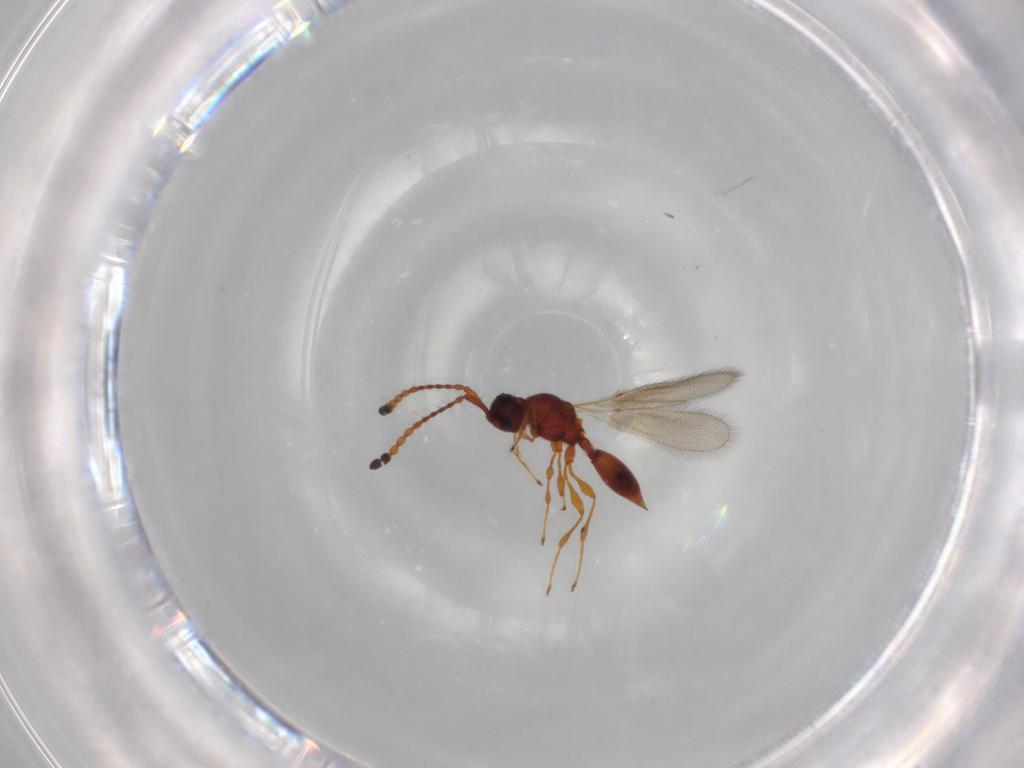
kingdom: Animalia
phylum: Arthropoda
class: Insecta
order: Hymenoptera
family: Diapriidae
